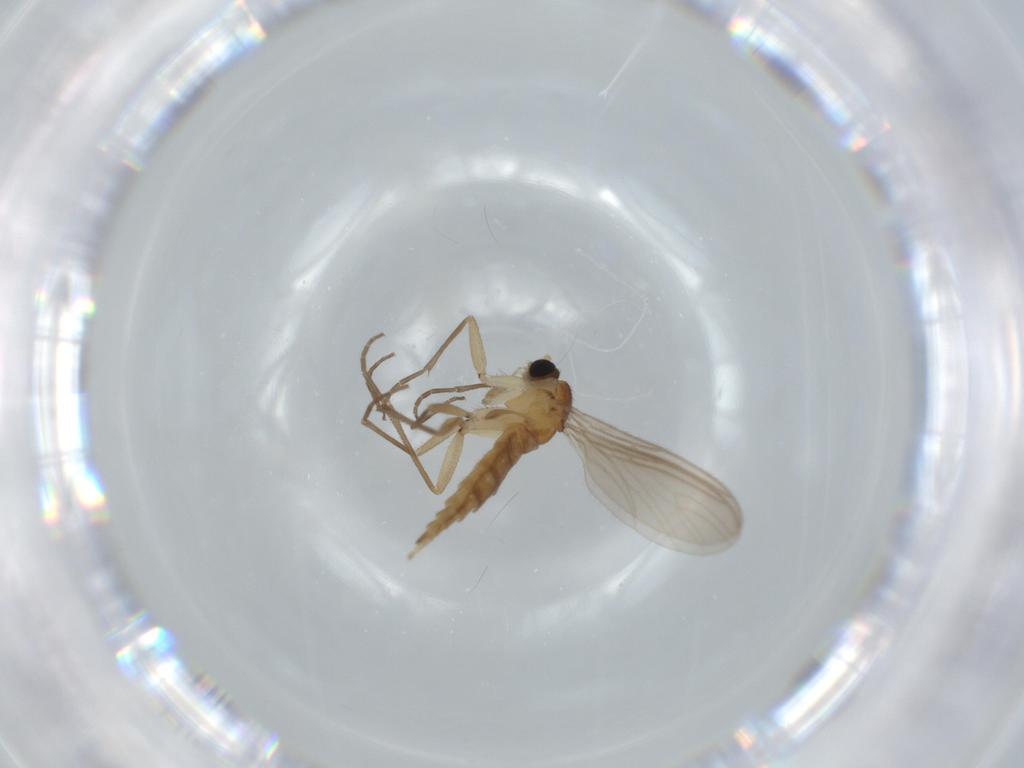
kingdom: Animalia
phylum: Arthropoda
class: Insecta
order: Diptera
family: Sciaridae
